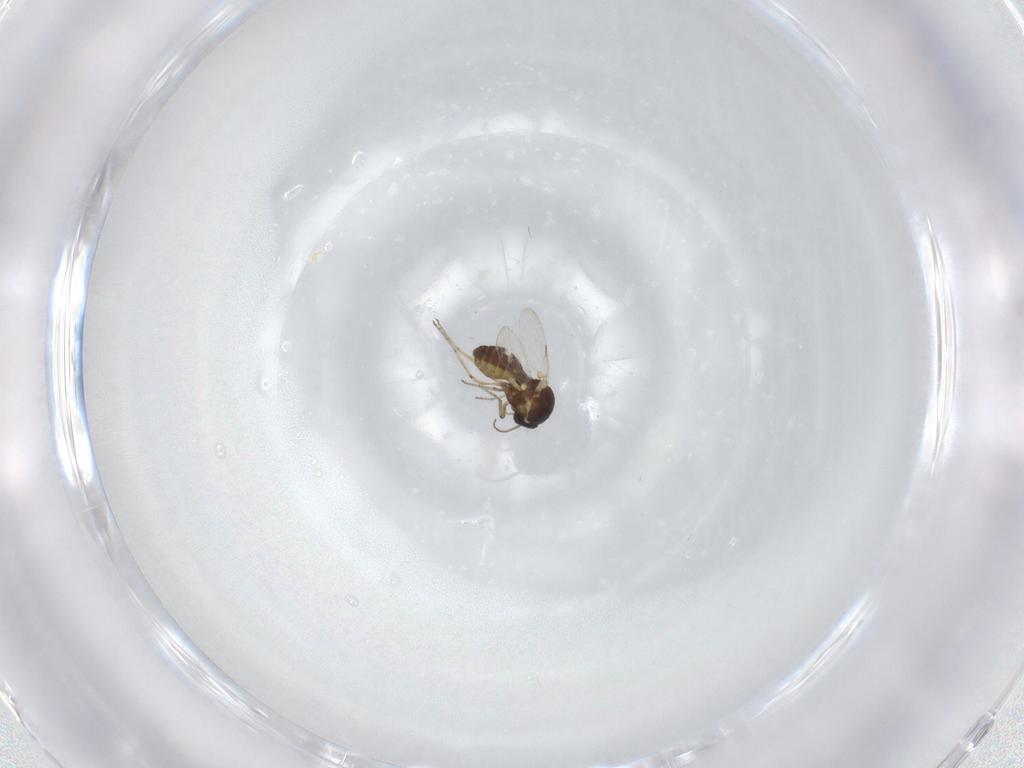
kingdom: Animalia
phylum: Arthropoda
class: Insecta
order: Diptera
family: Ceratopogonidae
